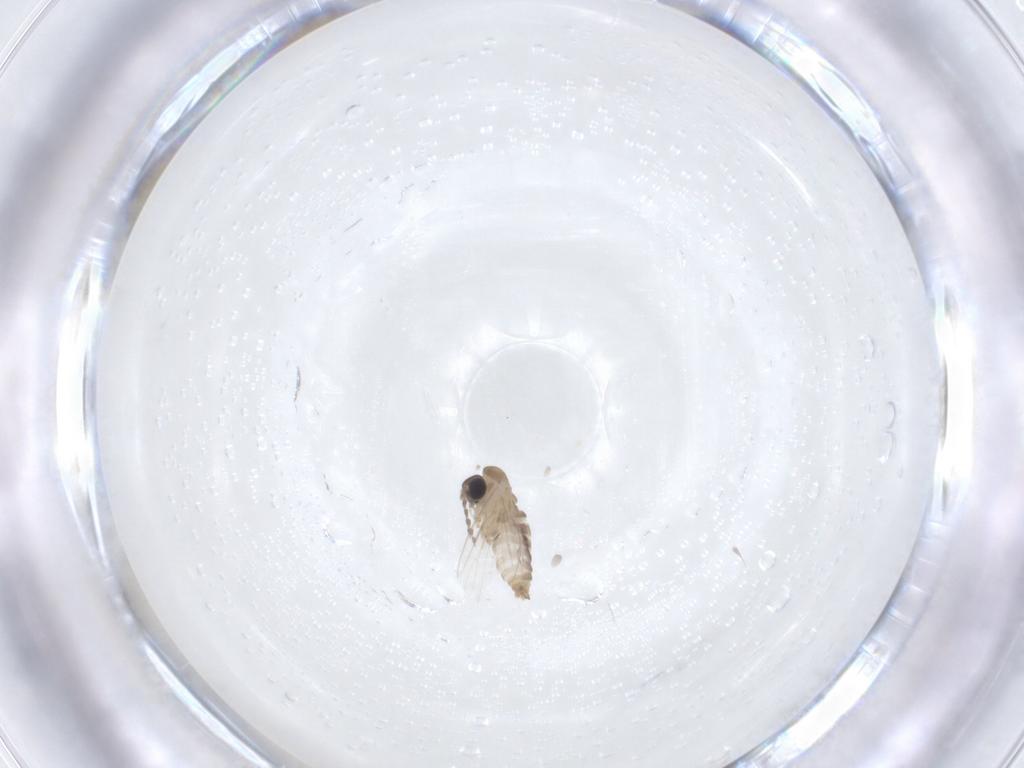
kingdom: Animalia
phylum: Arthropoda
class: Insecta
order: Diptera
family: Psychodidae
